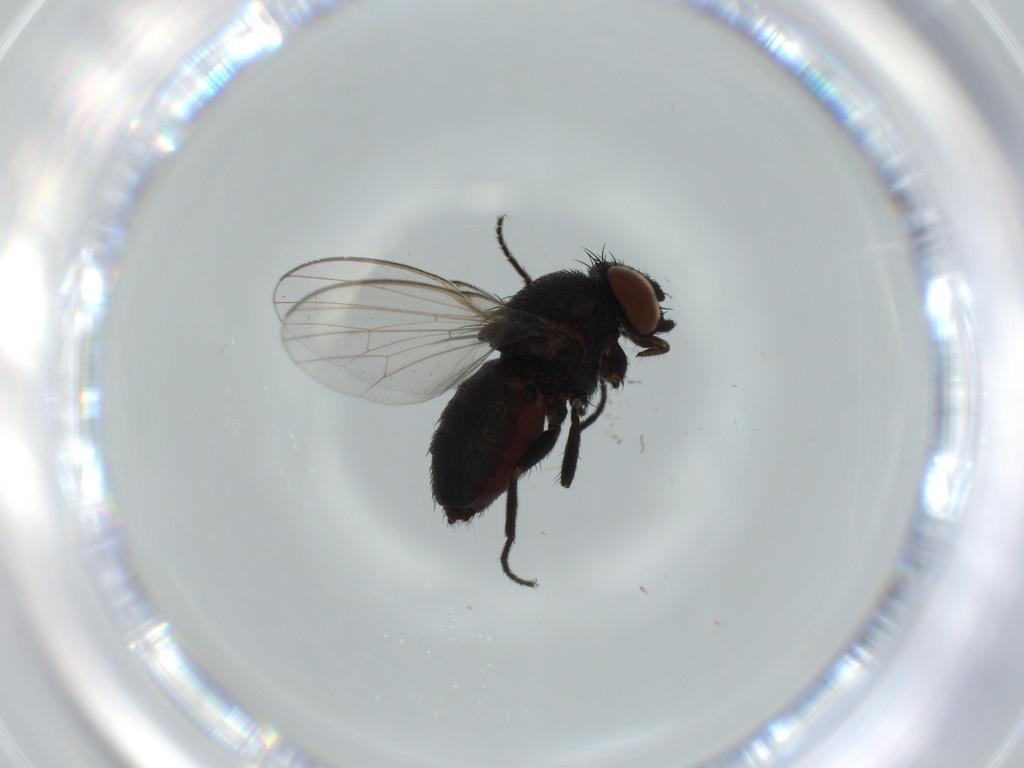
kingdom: Animalia
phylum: Arthropoda
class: Insecta
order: Diptera
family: Milichiidae
